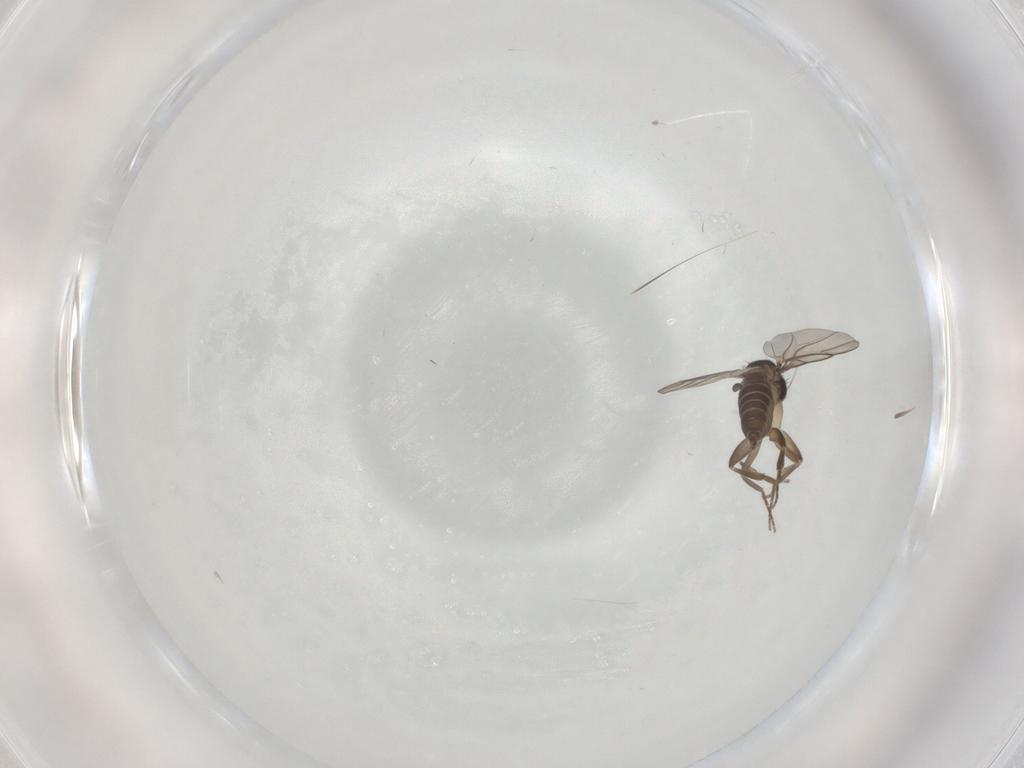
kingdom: Animalia
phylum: Arthropoda
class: Insecta
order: Diptera
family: Phoridae
